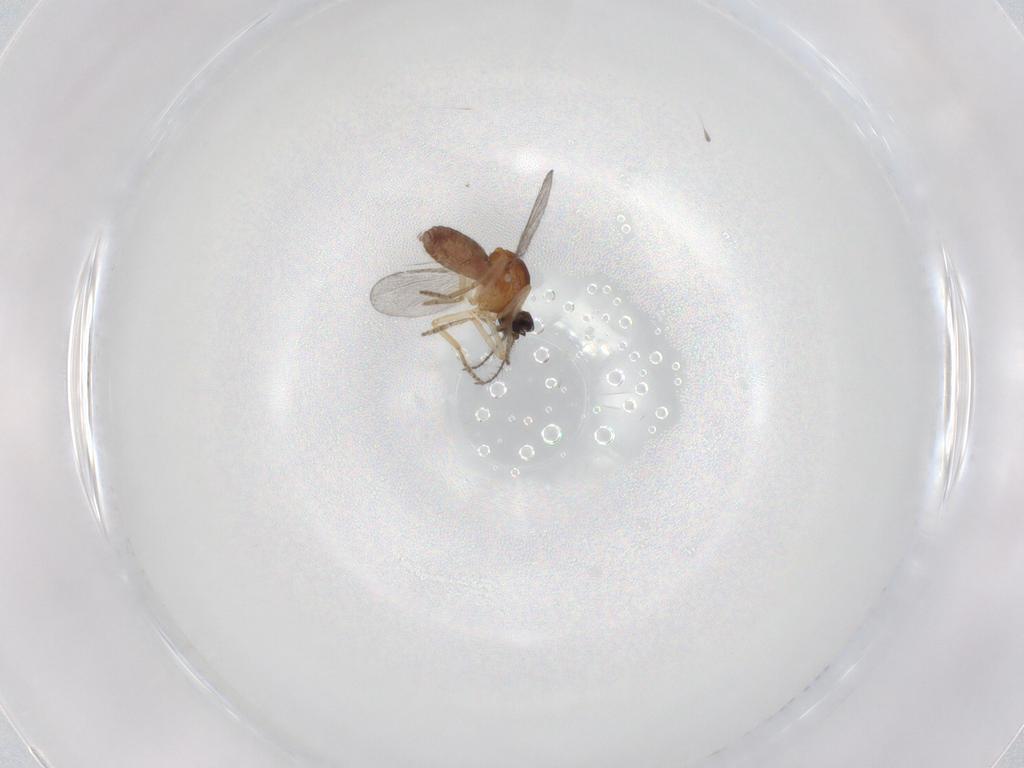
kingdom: Animalia
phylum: Arthropoda
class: Insecta
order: Diptera
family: Ceratopogonidae
